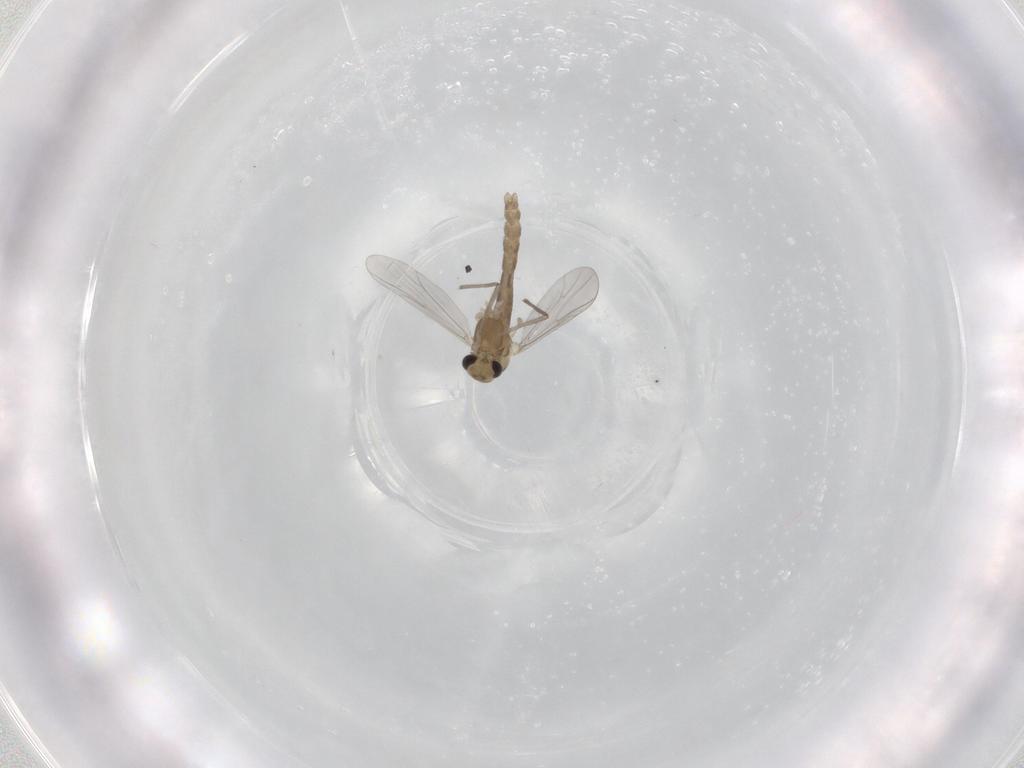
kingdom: Animalia
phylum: Arthropoda
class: Insecta
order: Diptera
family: Chironomidae
